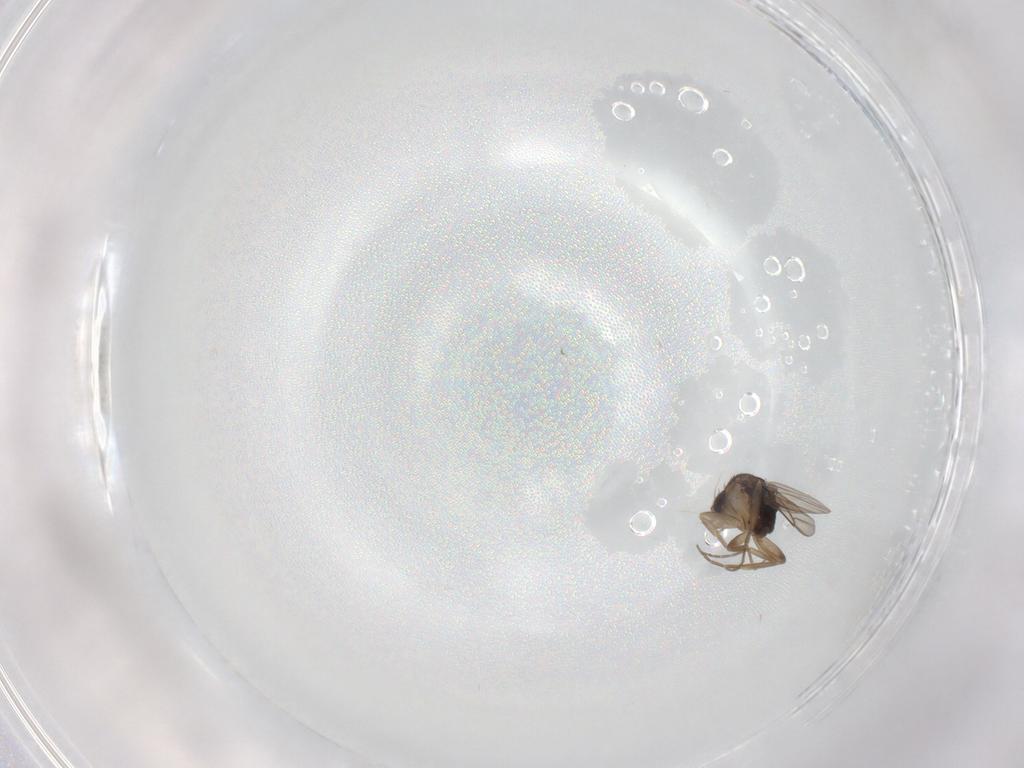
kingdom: Animalia
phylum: Arthropoda
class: Insecta
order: Diptera
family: Phoridae
